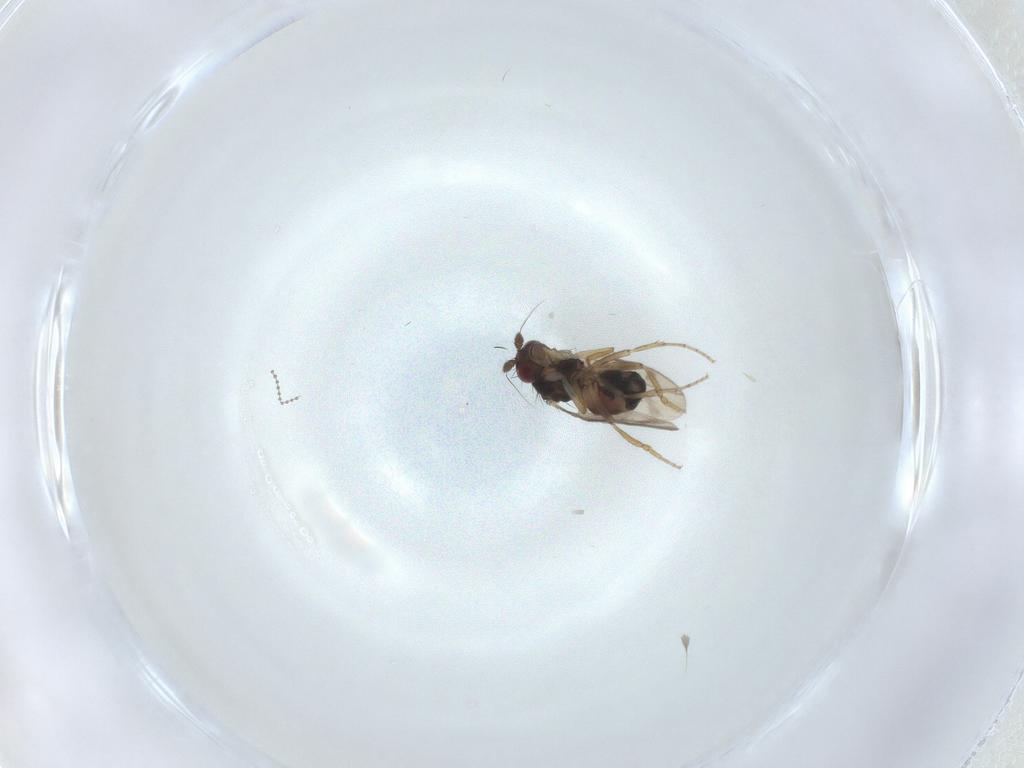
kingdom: Animalia
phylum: Arthropoda
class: Insecta
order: Diptera
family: Sphaeroceridae
